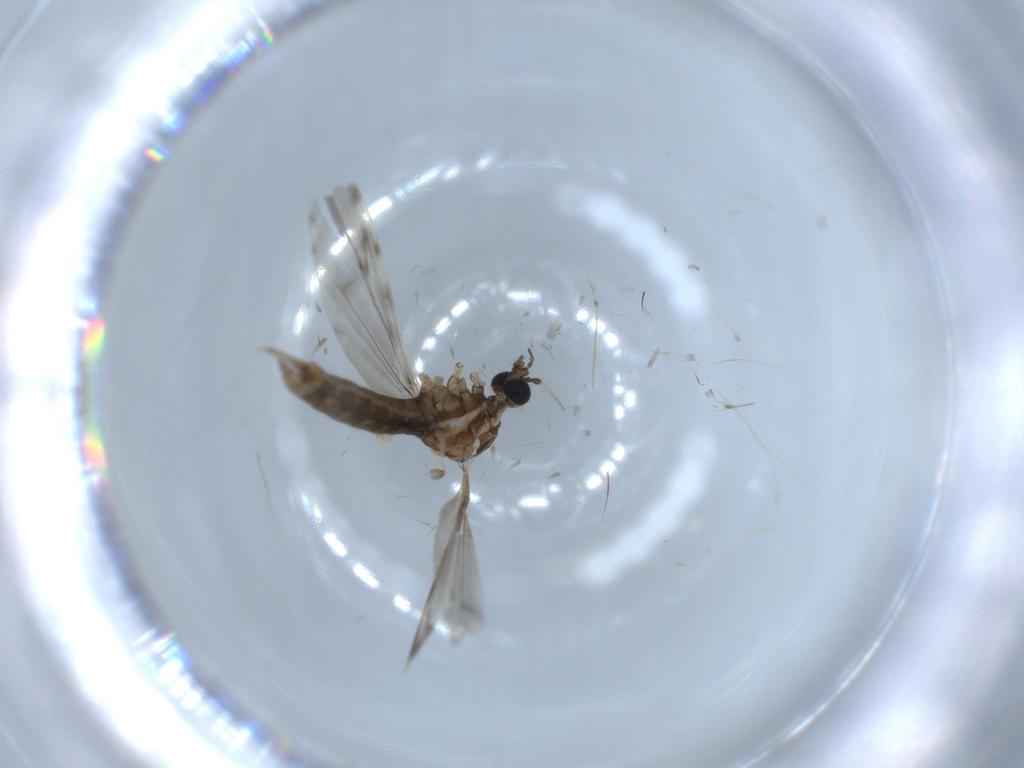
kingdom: Animalia
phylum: Arthropoda
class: Insecta
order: Diptera
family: Limoniidae
